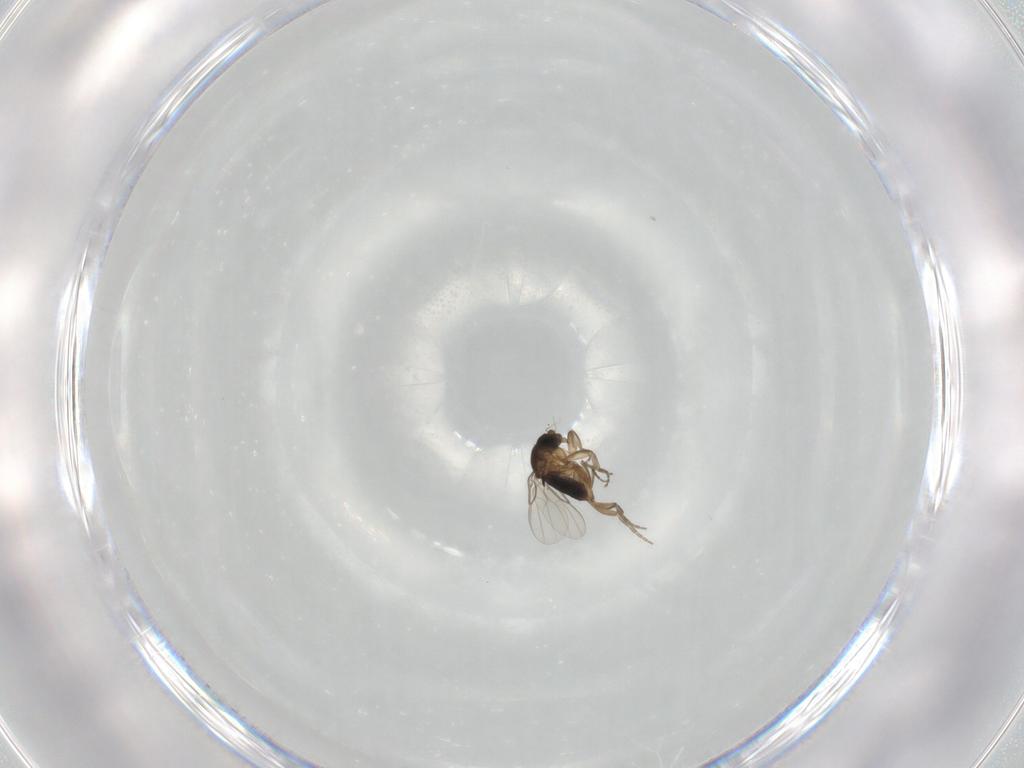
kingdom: Animalia
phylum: Arthropoda
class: Insecta
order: Diptera
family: Phoridae
